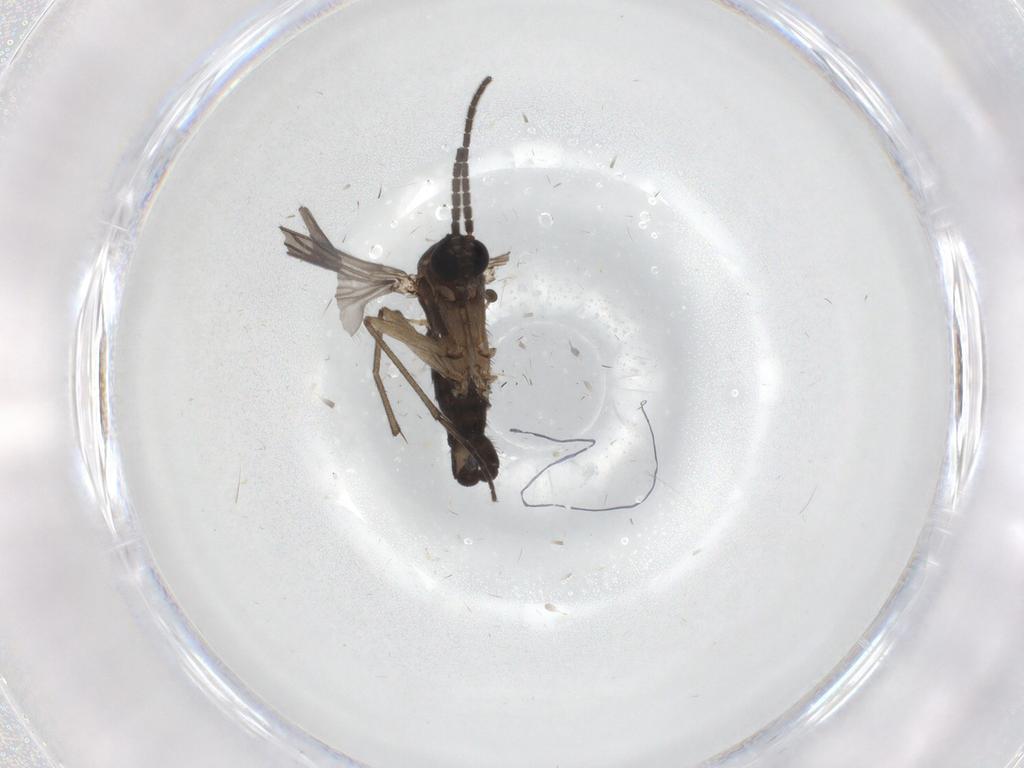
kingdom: Animalia
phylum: Arthropoda
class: Insecta
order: Diptera
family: Sciaridae
